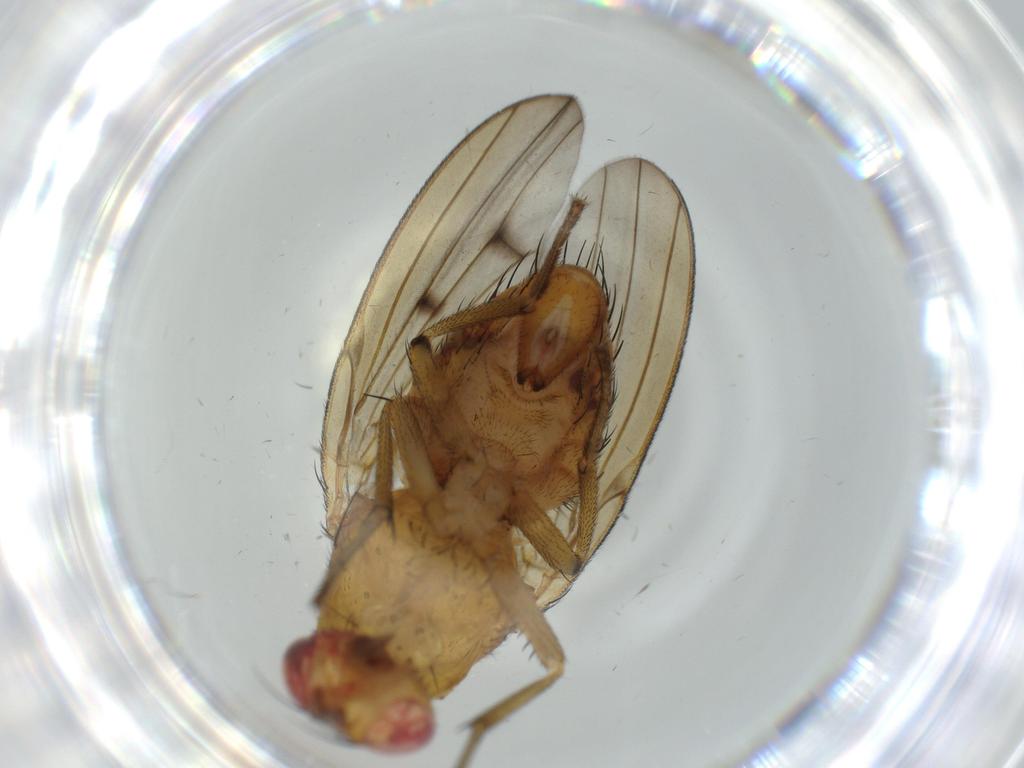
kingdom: Animalia
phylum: Arthropoda
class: Insecta
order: Diptera
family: Cecidomyiidae
